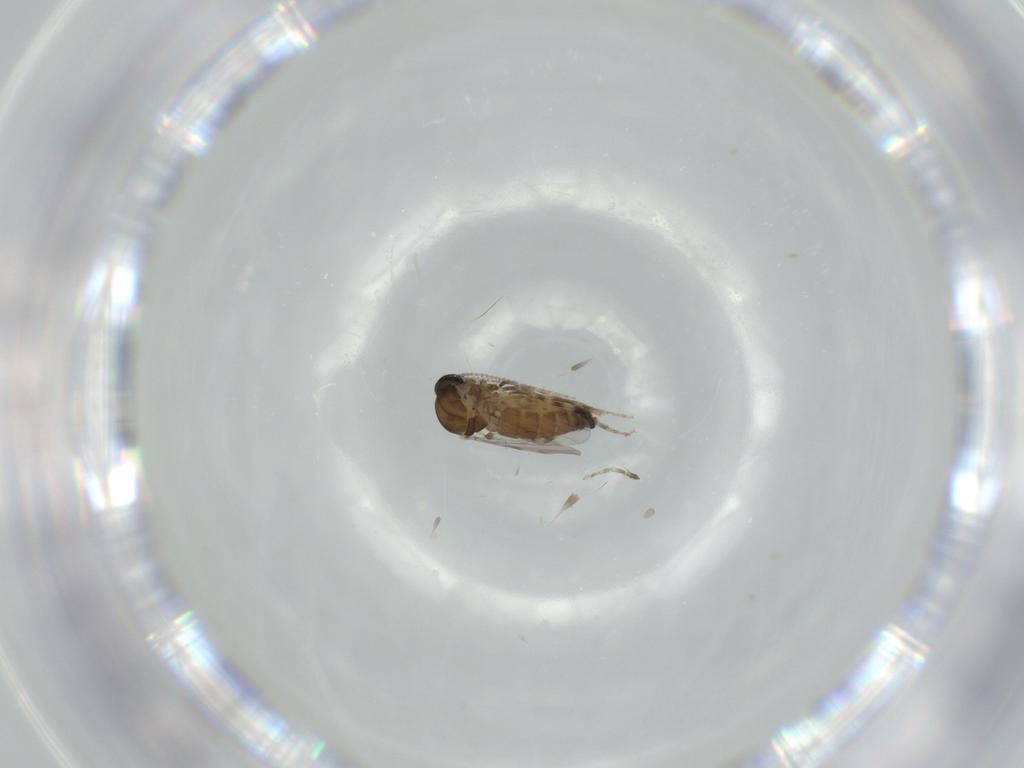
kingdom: Animalia
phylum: Arthropoda
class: Insecta
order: Diptera
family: Ceratopogonidae
